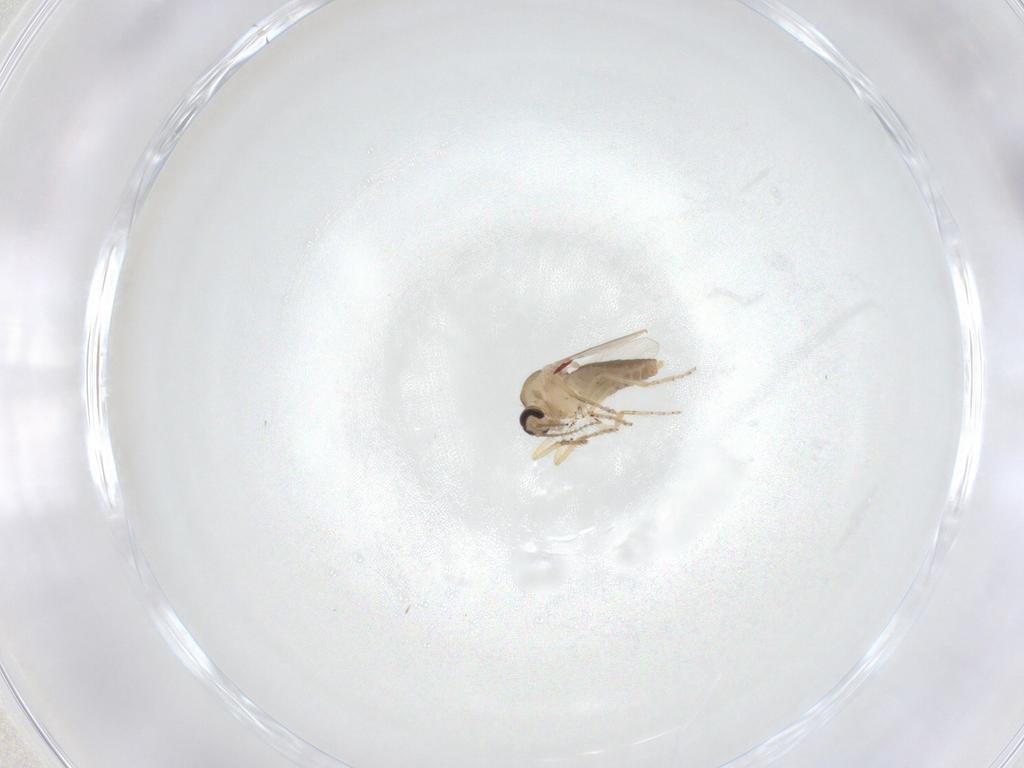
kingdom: Animalia
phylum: Arthropoda
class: Insecta
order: Diptera
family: Ceratopogonidae
